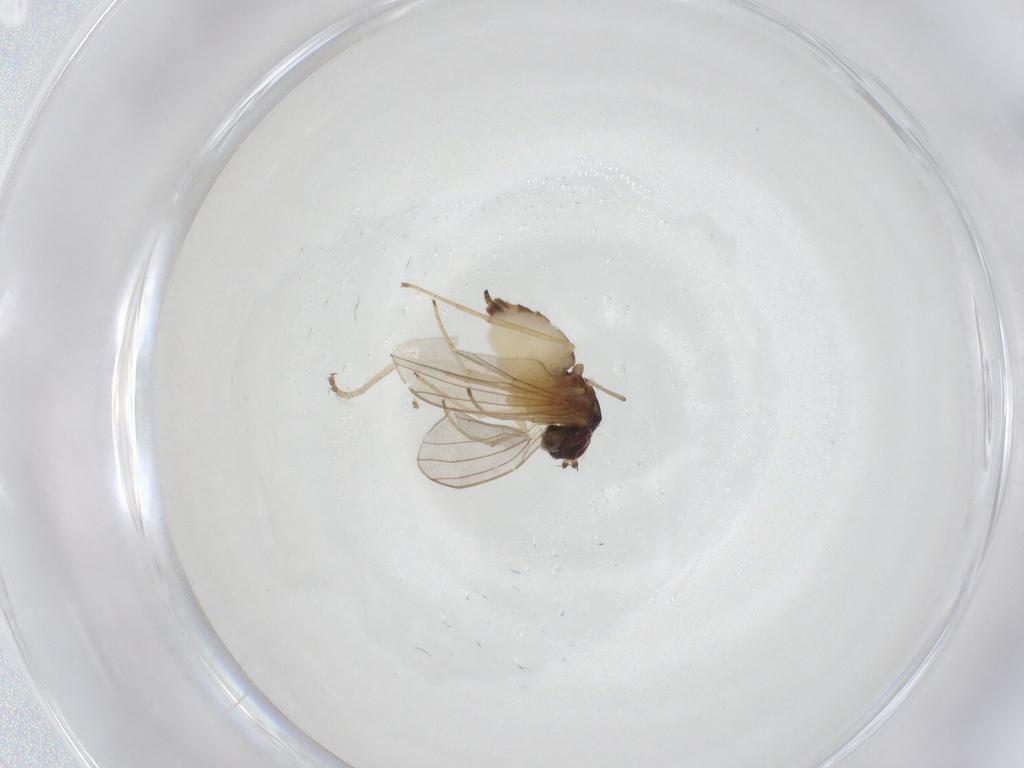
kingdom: Animalia
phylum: Arthropoda
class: Insecta
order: Diptera
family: Dolichopodidae
